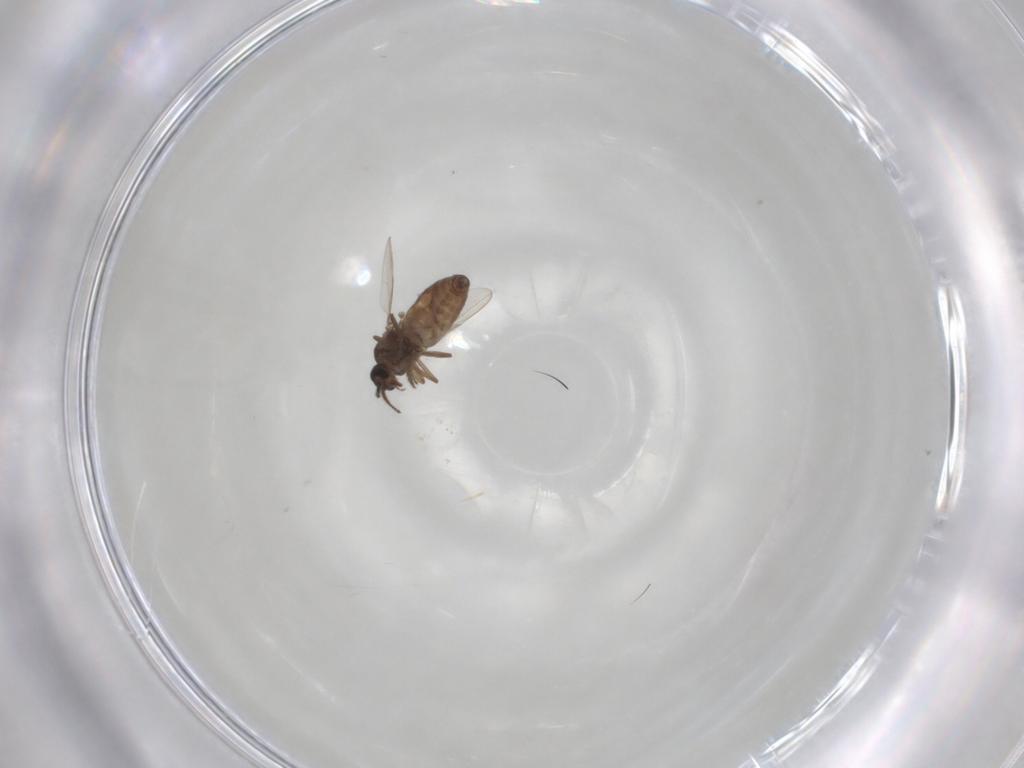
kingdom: Animalia
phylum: Arthropoda
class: Insecta
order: Diptera
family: Ceratopogonidae
